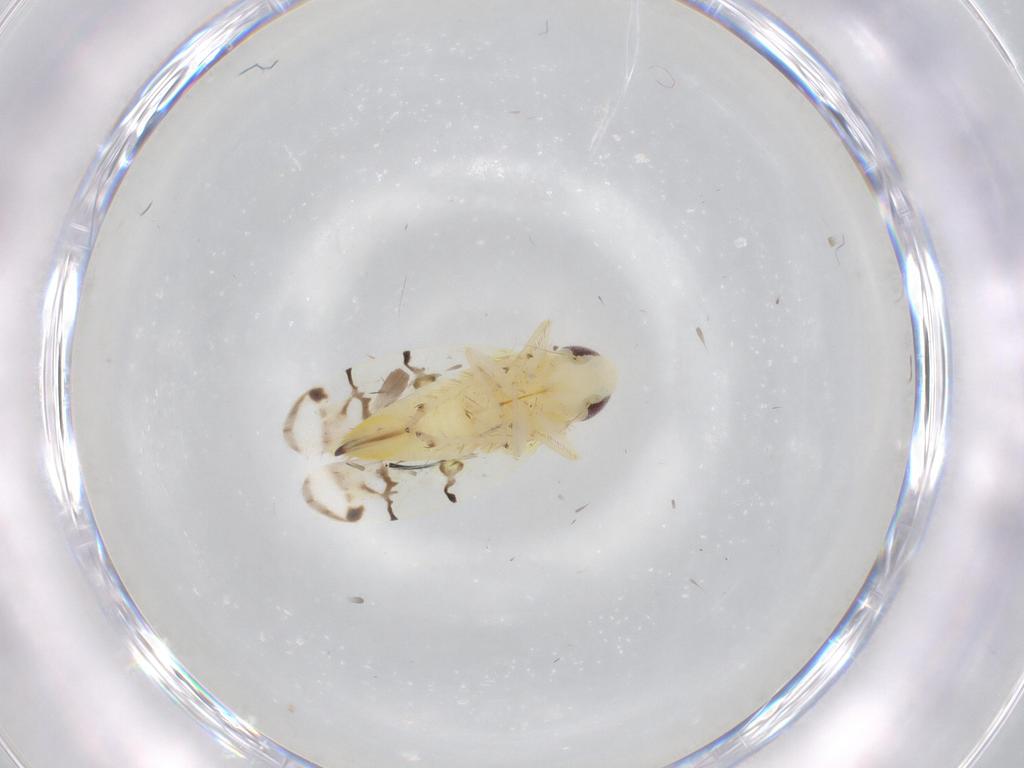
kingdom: Animalia
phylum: Arthropoda
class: Insecta
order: Hemiptera
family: Cicadellidae
